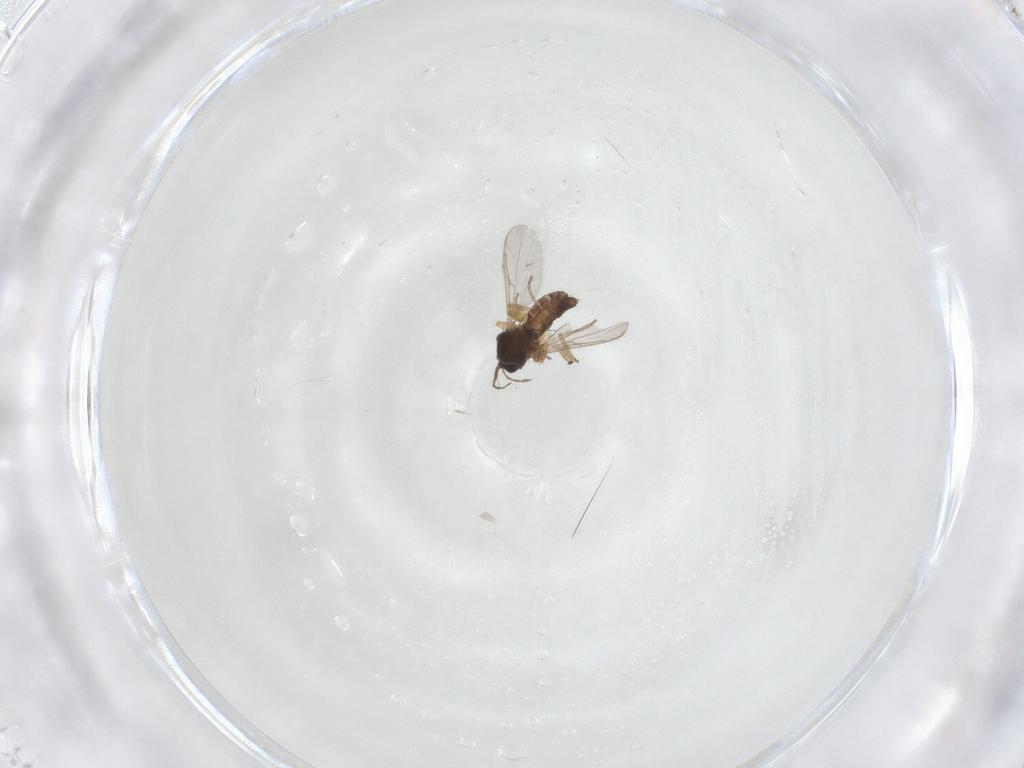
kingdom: Animalia
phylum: Arthropoda
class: Insecta
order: Diptera
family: Ceratopogonidae
